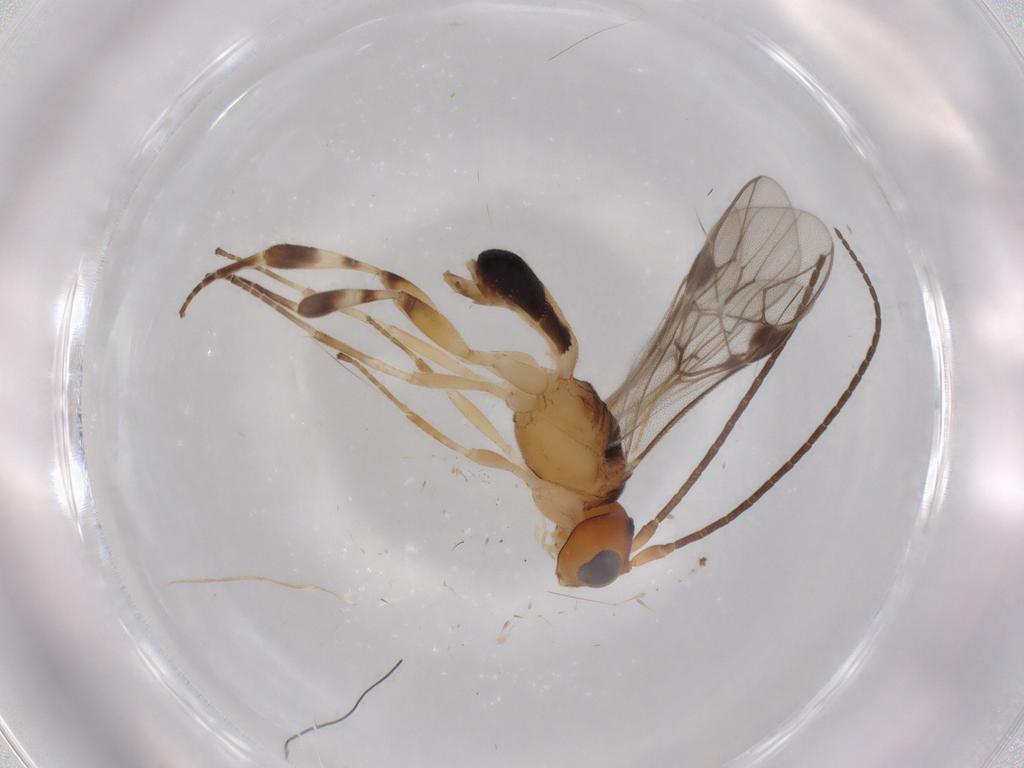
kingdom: Animalia
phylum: Arthropoda
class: Insecta
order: Hymenoptera
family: Braconidae
